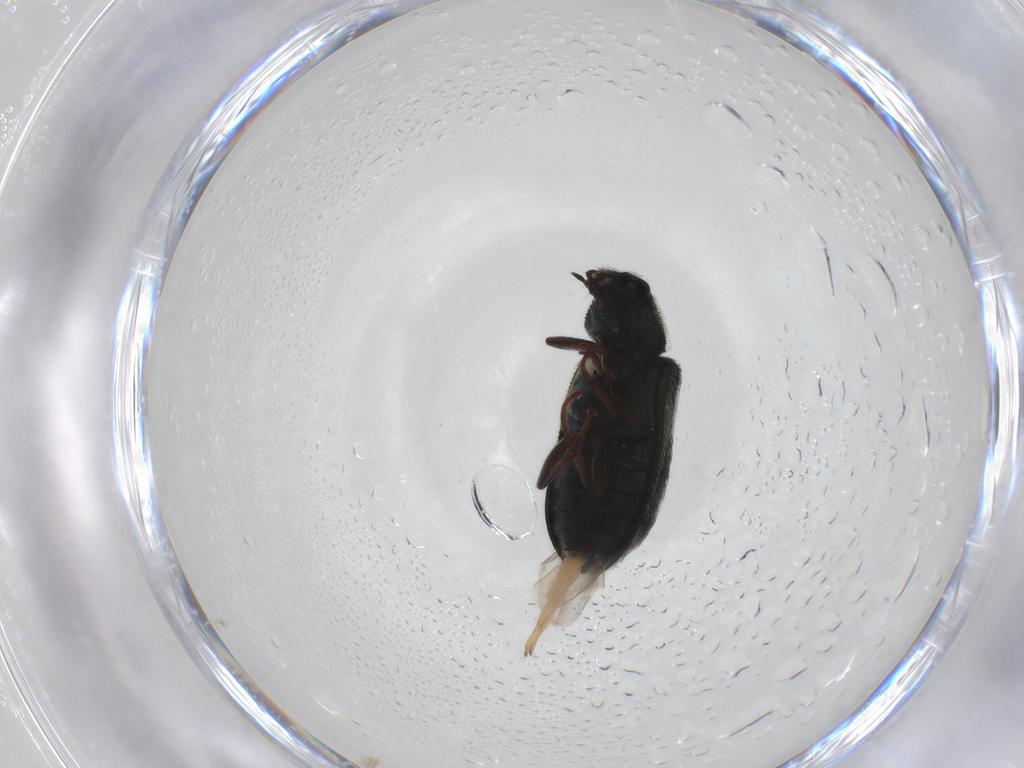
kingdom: Animalia
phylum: Arthropoda
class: Insecta
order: Coleoptera
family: Melyridae
